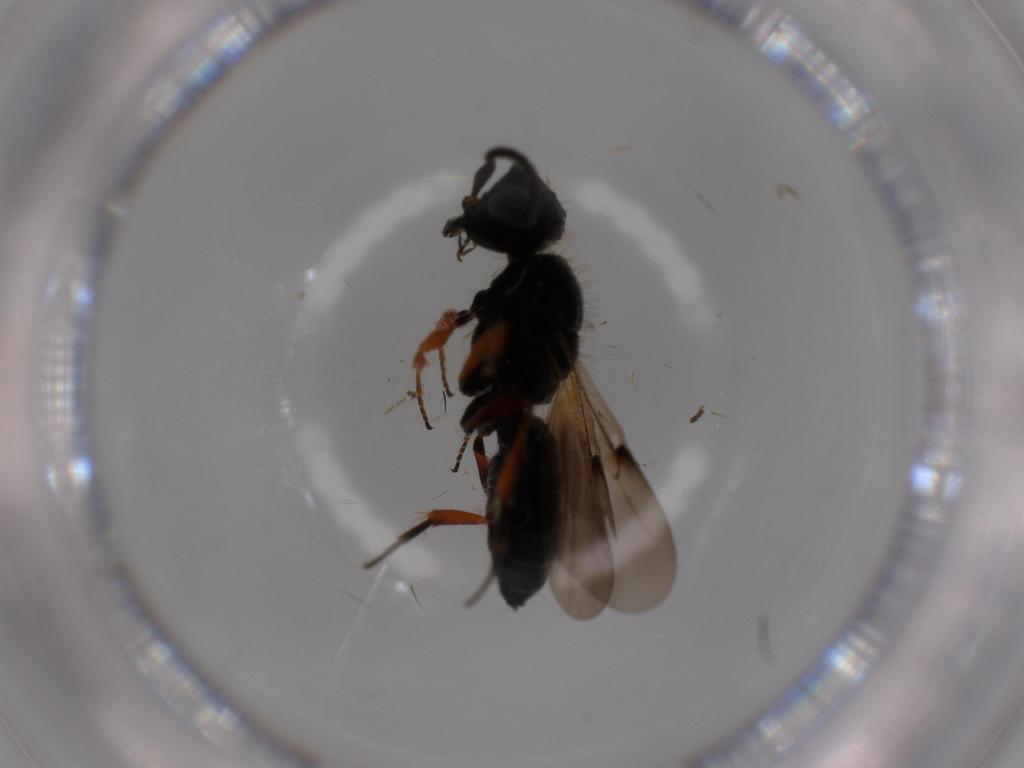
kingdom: Animalia
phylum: Arthropoda
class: Insecta
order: Hymenoptera
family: Scelionidae
